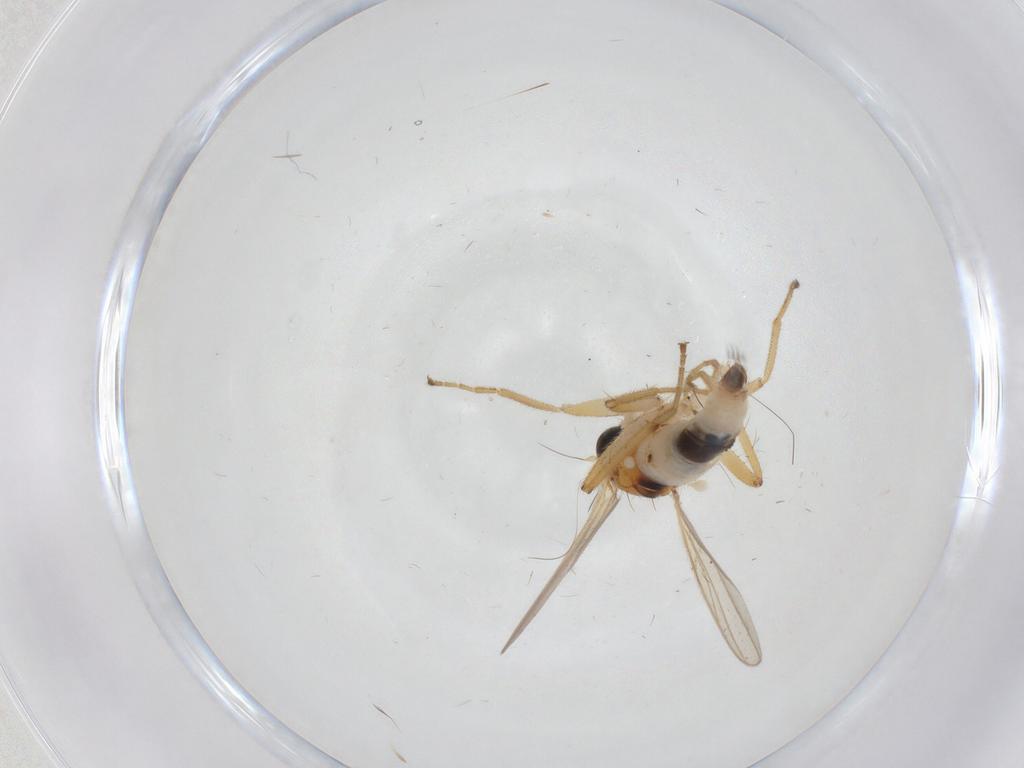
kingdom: Animalia
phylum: Arthropoda
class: Insecta
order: Diptera
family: Hybotidae
